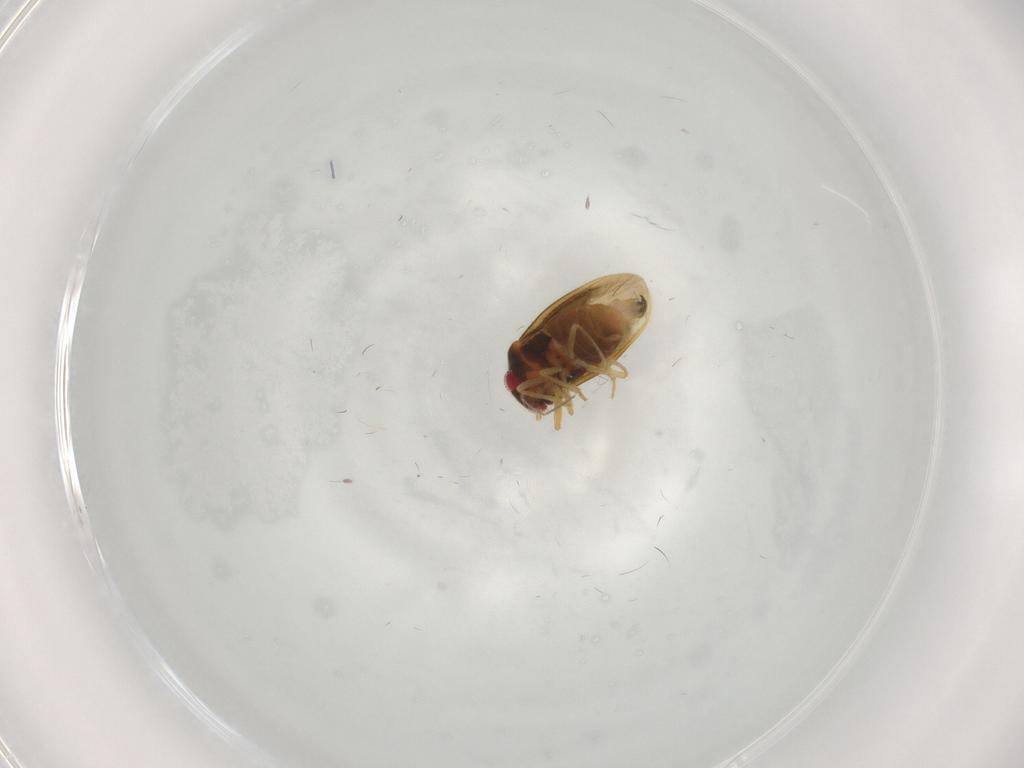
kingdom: Animalia
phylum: Arthropoda
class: Insecta
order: Hemiptera
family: Schizopteridae
